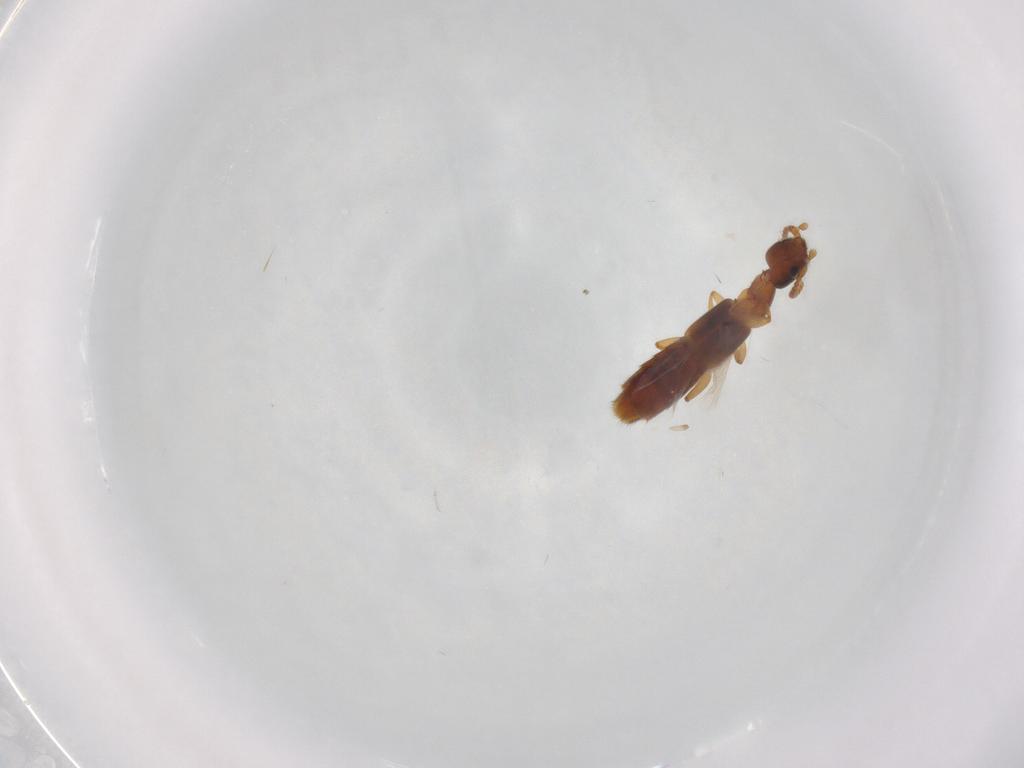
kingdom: Animalia
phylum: Arthropoda
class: Insecta
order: Coleoptera
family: Staphylinidae
